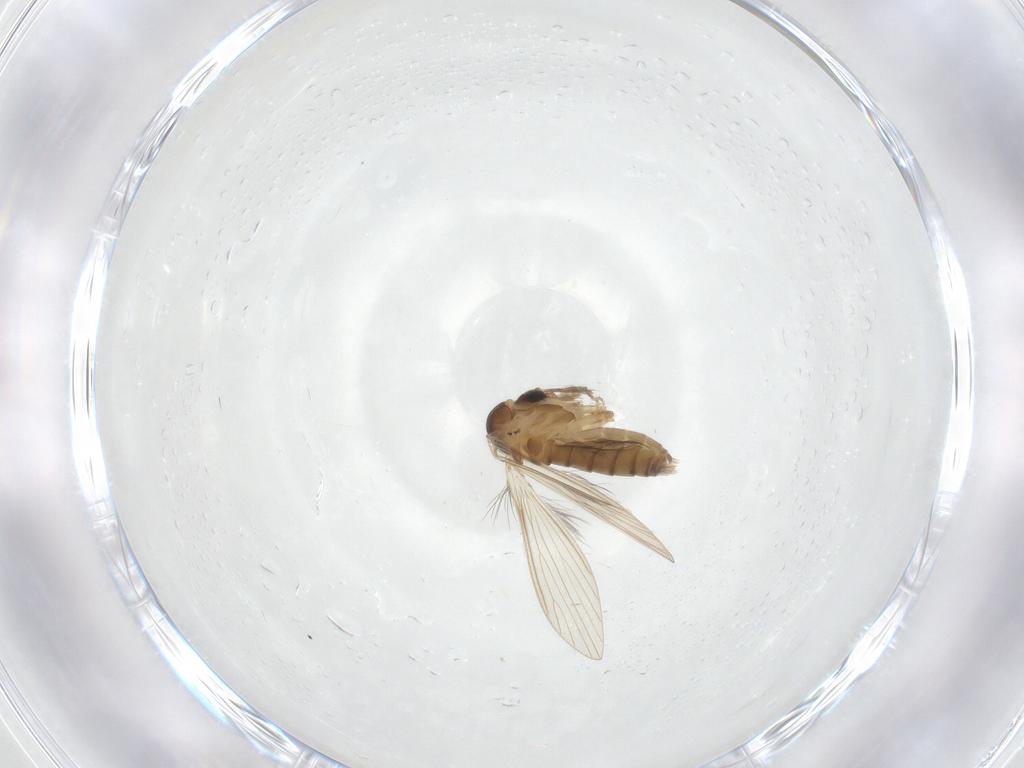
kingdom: Animalia
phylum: Arthropoda
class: Insecta
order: Diptera
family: Psychodidae
